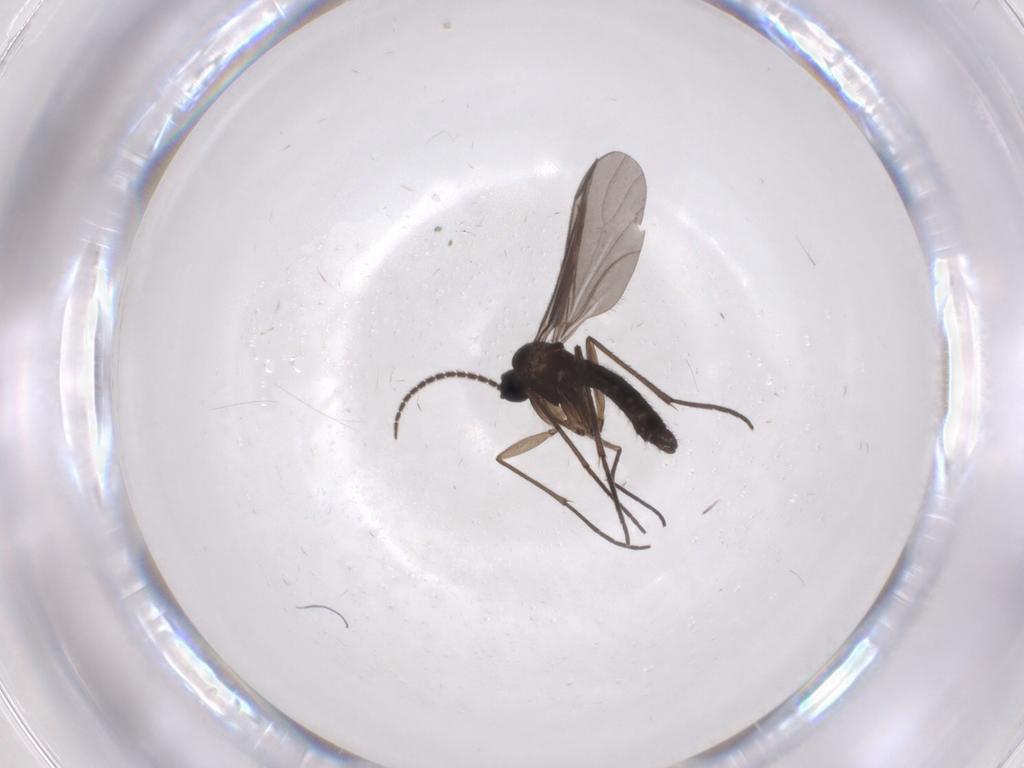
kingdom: Animalia
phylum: Arthropoda
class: Insecta
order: Diptera
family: Sciaridae
